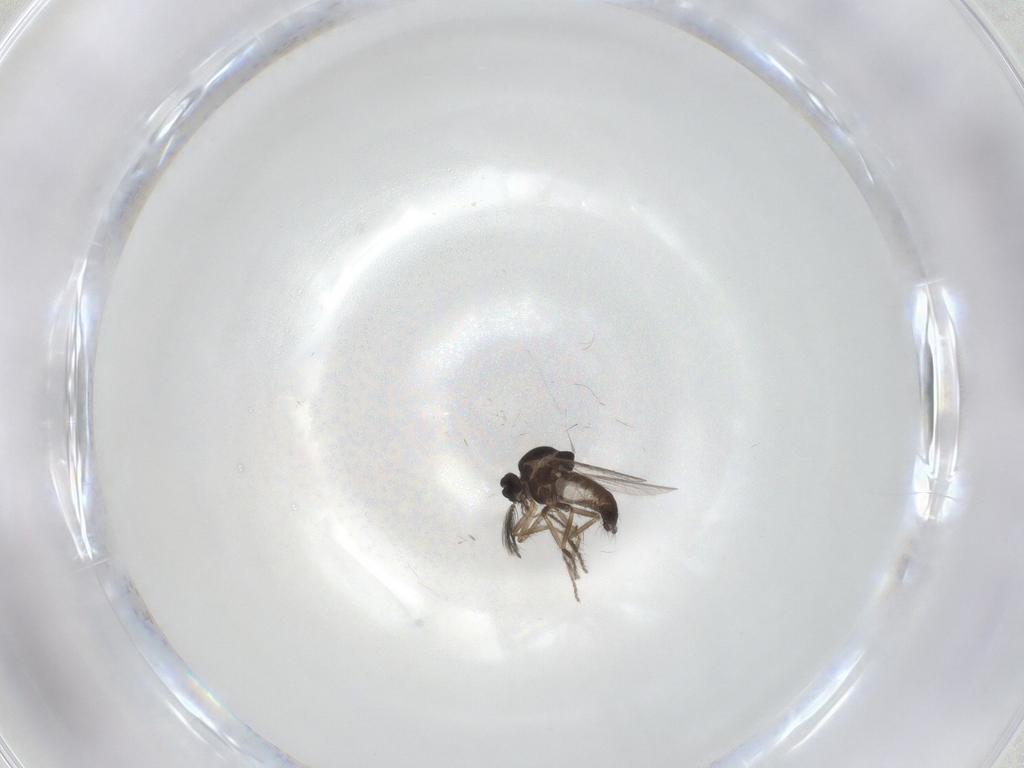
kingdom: Animalia
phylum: Arthropoda
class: Insecta
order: Diptera
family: Ceratopogonidae
